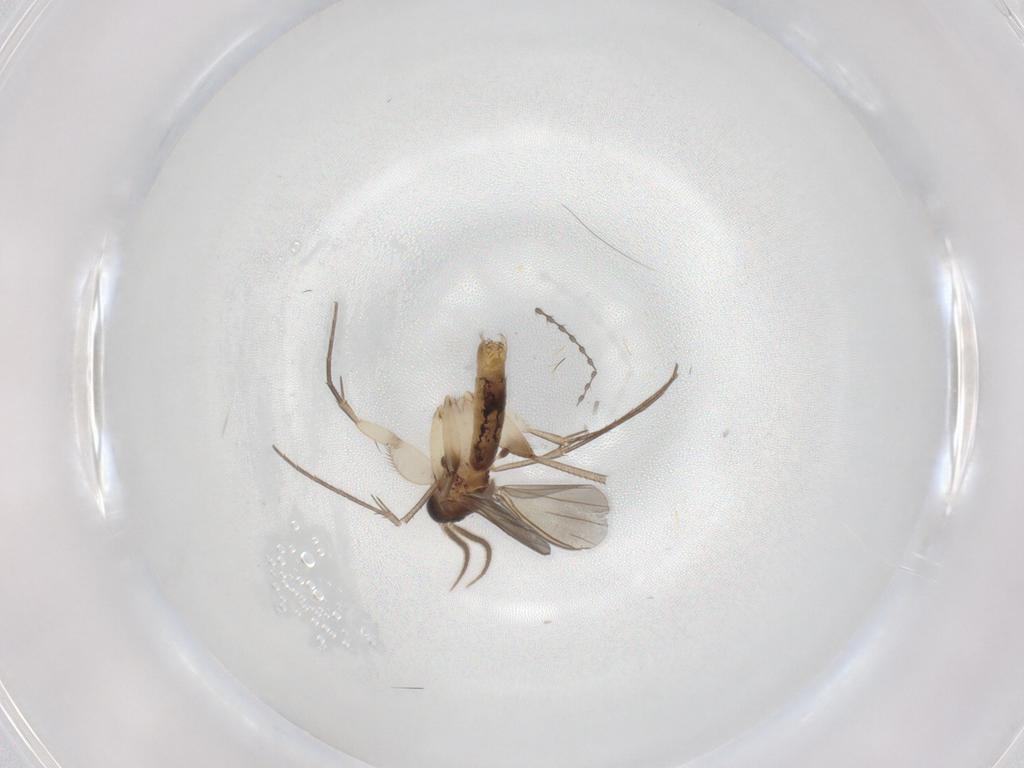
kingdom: Animalia
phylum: Arthropoda
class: Insecta
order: Diptera
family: Mycetophilidae
